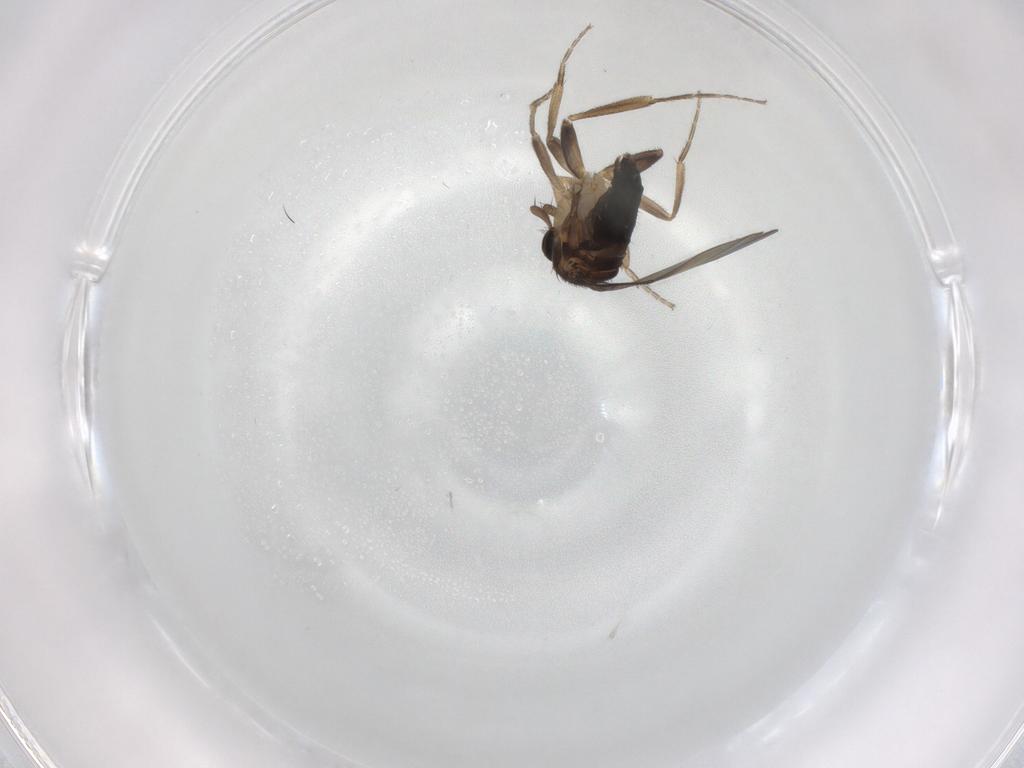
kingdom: Animalia
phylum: Arthropoda
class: Insecta
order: Diptera
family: Phoridae
